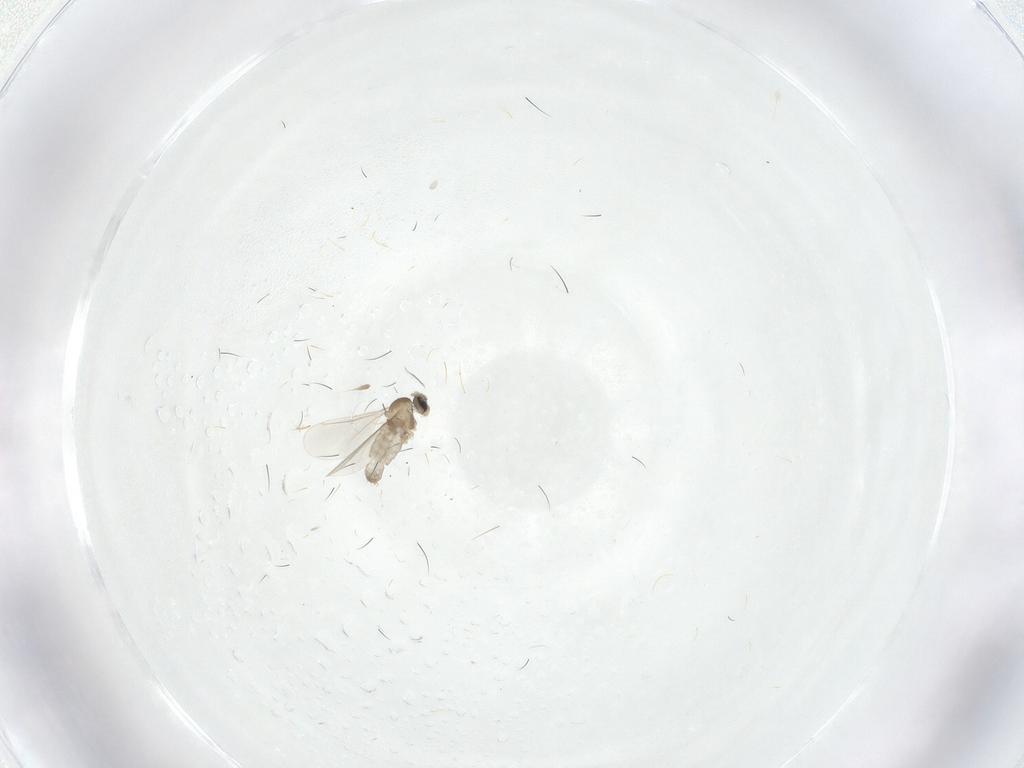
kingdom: Animalia
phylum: Arthropoda
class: Insecta
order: Diptera
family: Cecidomyiidae
